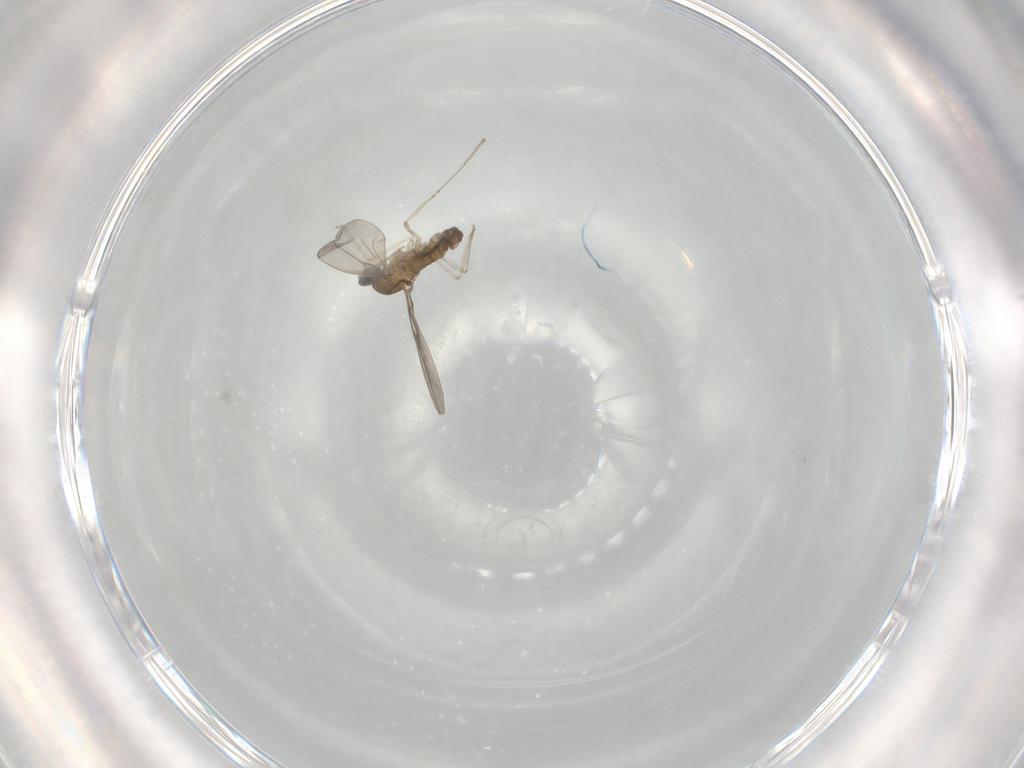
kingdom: Animalia
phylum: Arthropoda
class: Insecta
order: Diptera
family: Cecidomyiidae
